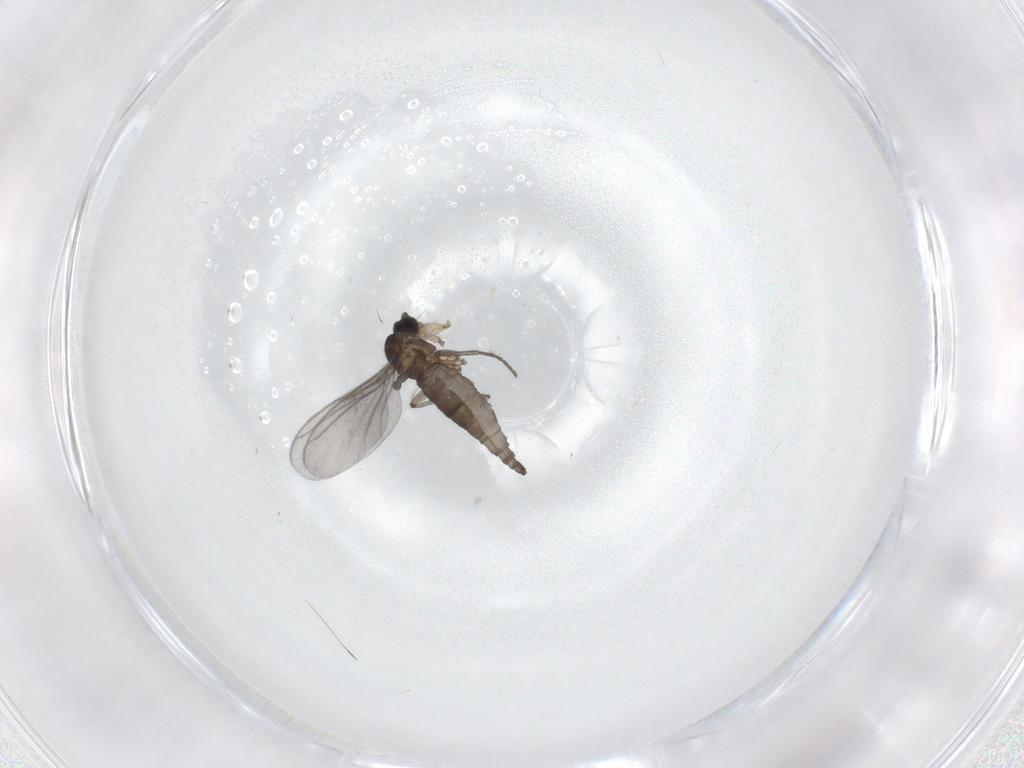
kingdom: Animalia
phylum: Arthropoda
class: Insecta
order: Diptera
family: Sciaridae
